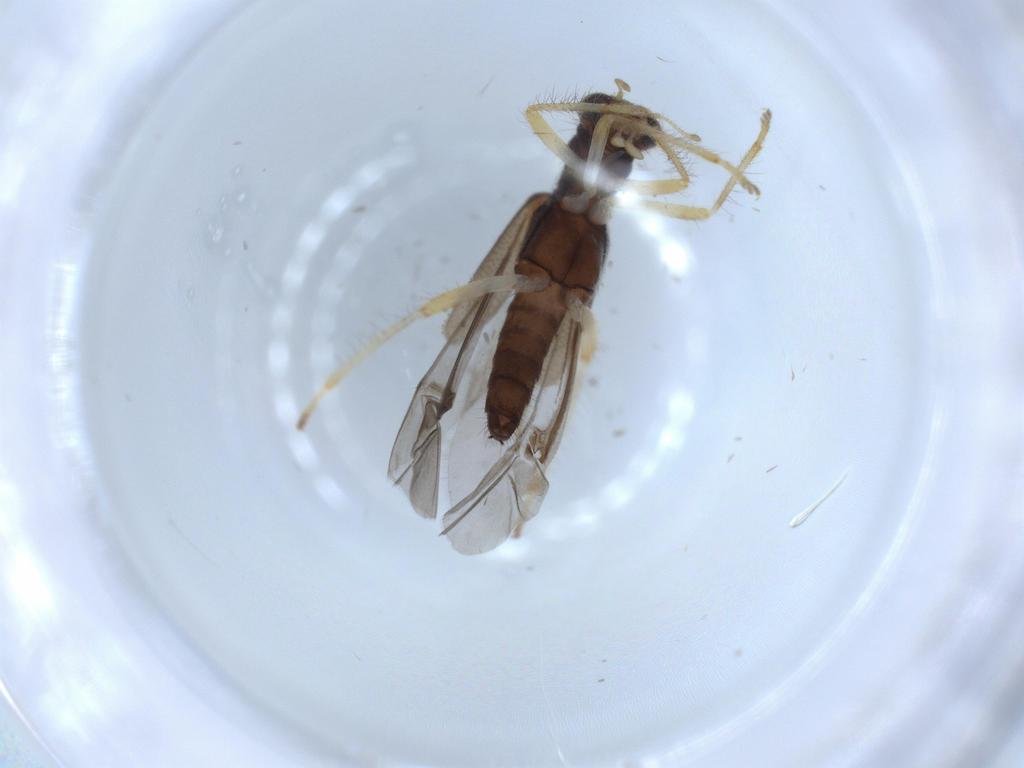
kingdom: Animalia
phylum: Arthropoda
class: Insecta
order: Coleoptera
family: Cleridae
